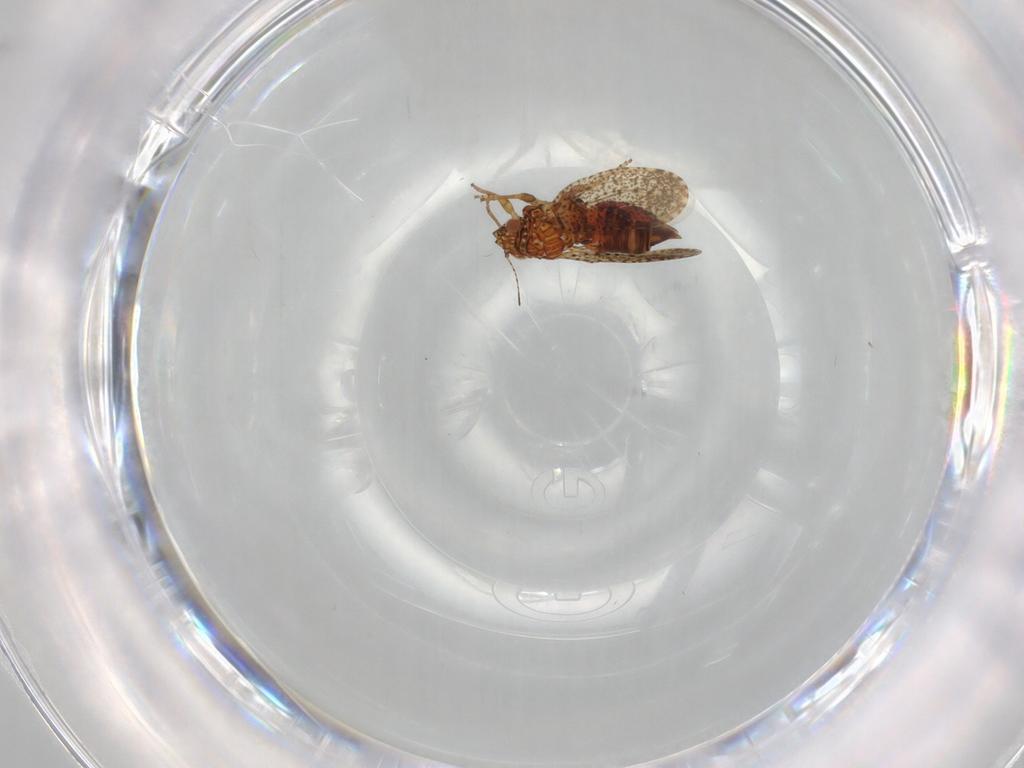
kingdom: Animalia
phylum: Arthropoda
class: Insecta
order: Hemiptera
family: Psyllidae
